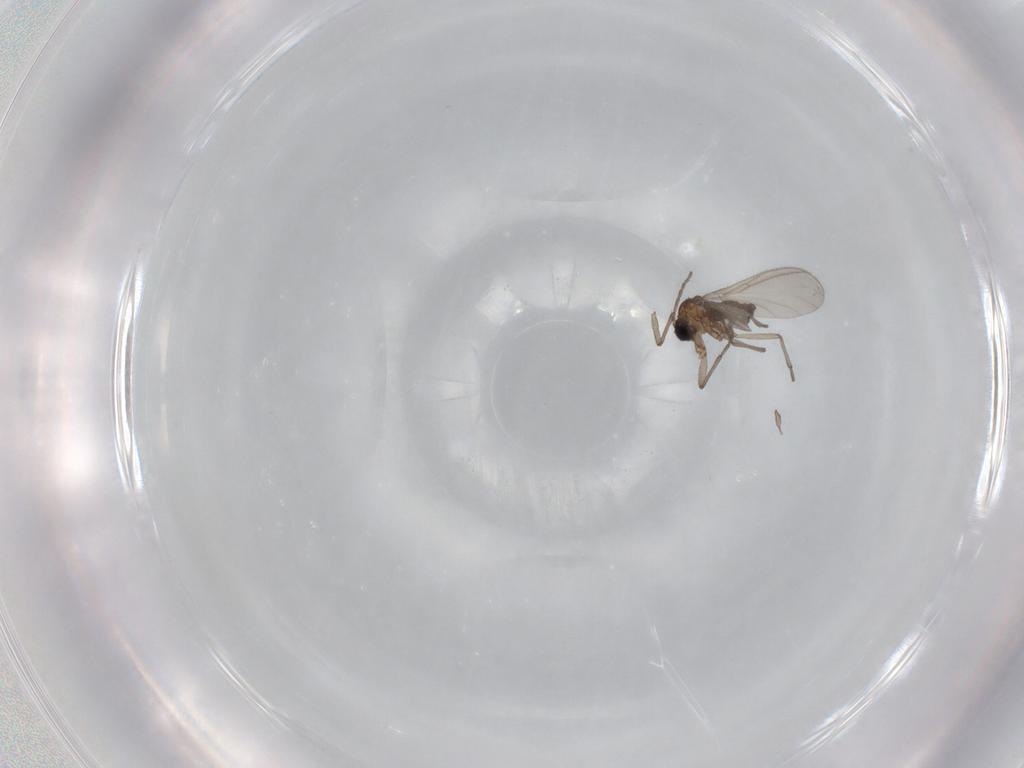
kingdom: Animalia
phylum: Arthropoda
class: Insecta
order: Diptera
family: Sciaridae
